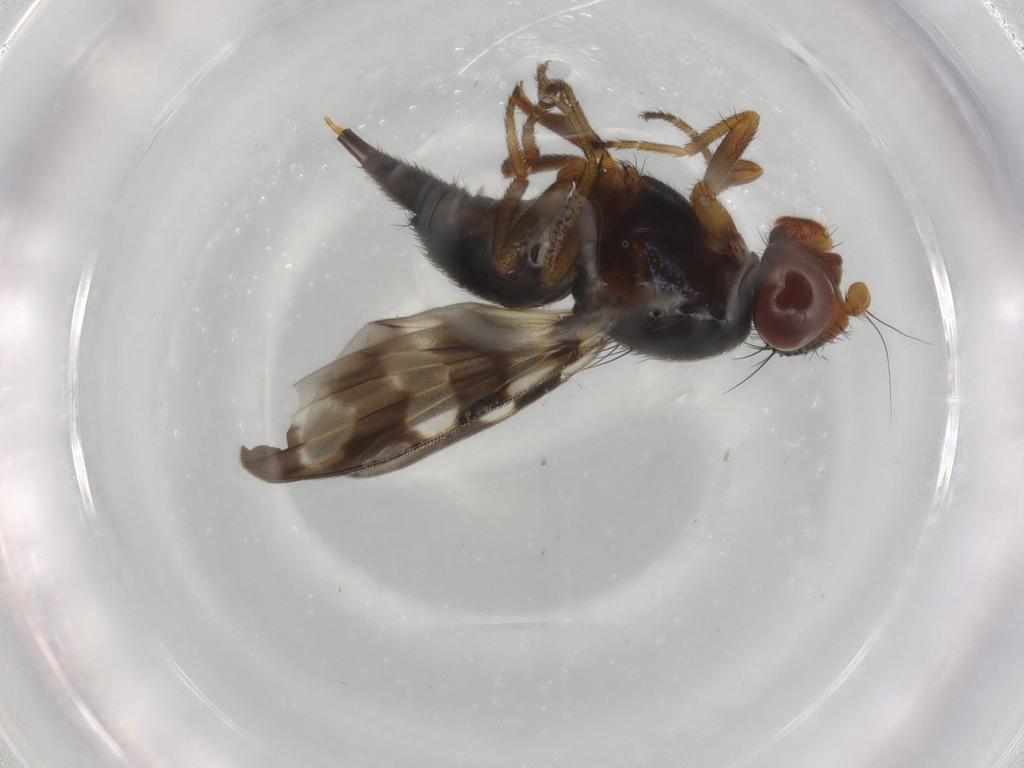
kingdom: Animalia
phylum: Arthropoda
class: Insecta
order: Diptera
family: Ulidiidae
